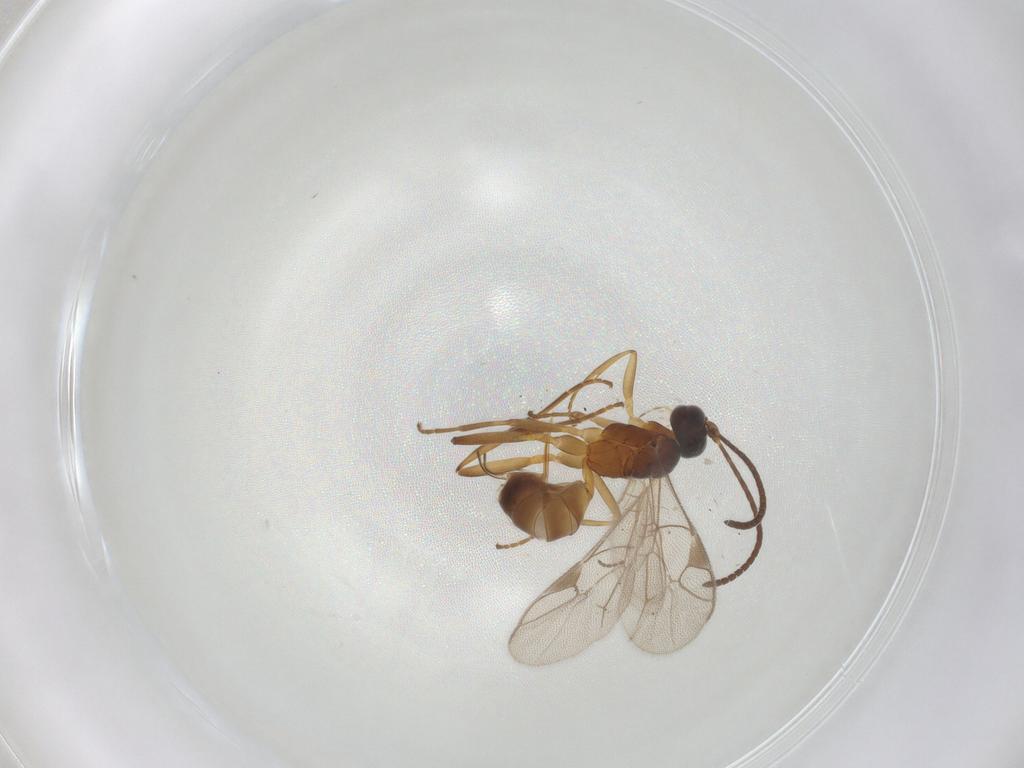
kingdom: Animalia
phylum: Arthropoda
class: Insecta
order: Hymenoptera
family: Ichneumonidae
